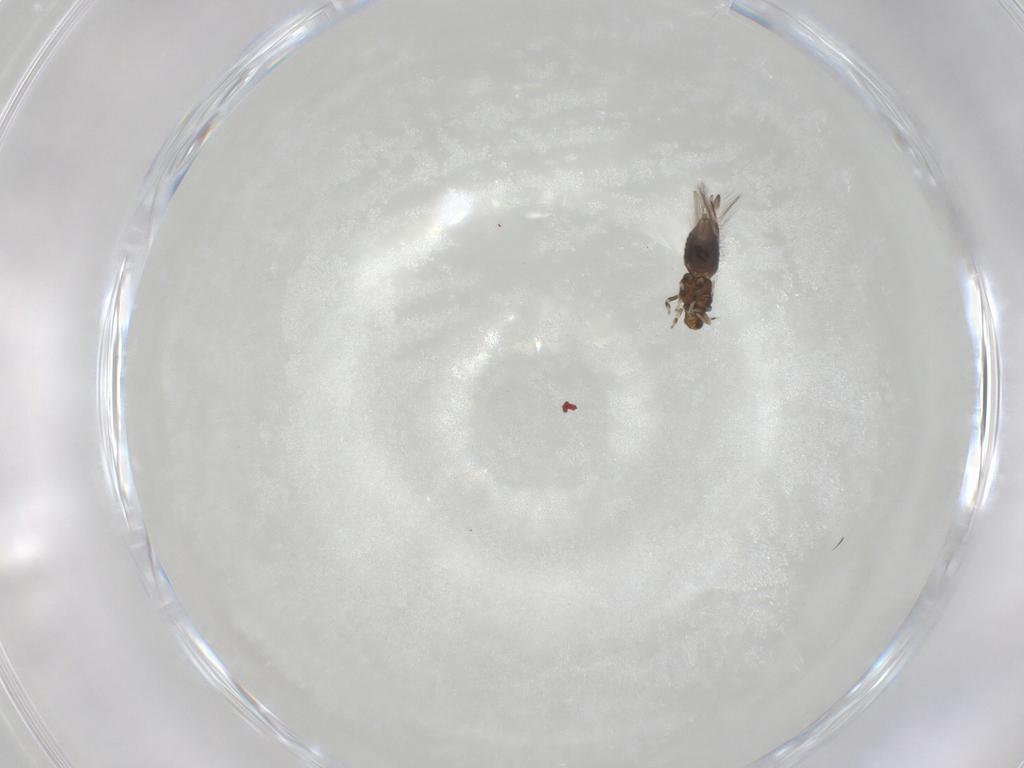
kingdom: Animalia
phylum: Arthropoda
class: Insecta
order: Thysanoptera
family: Thripidae
